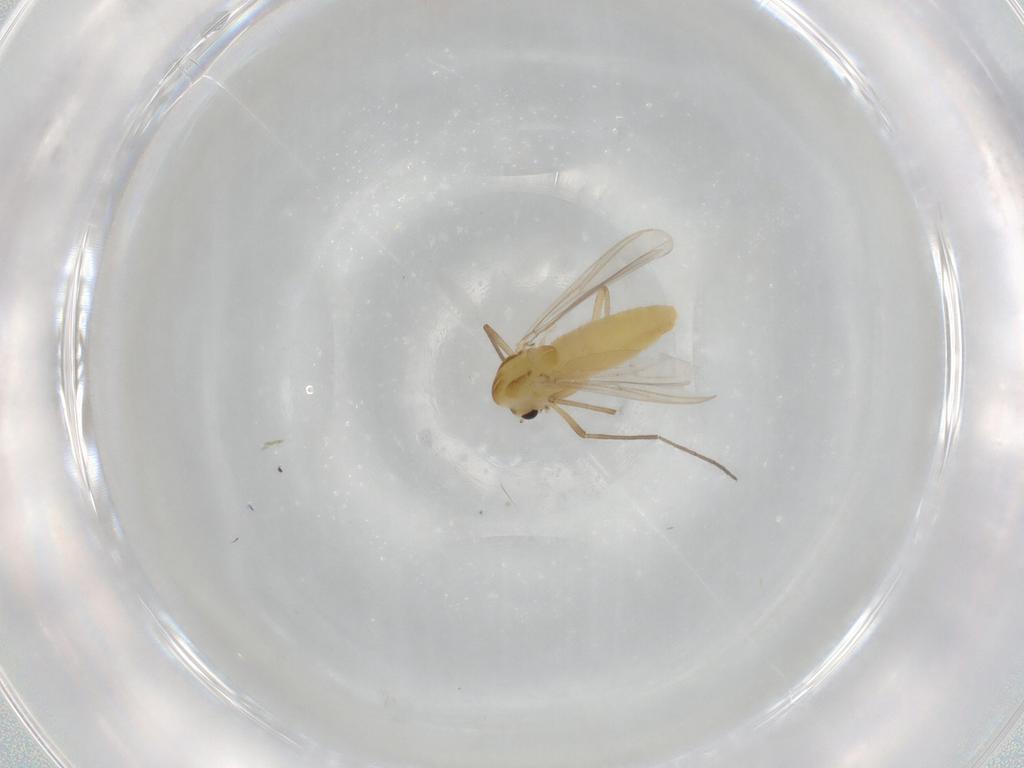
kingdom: Animalia
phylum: Arthropoda
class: Insecta
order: Diptera
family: Chironomidae
